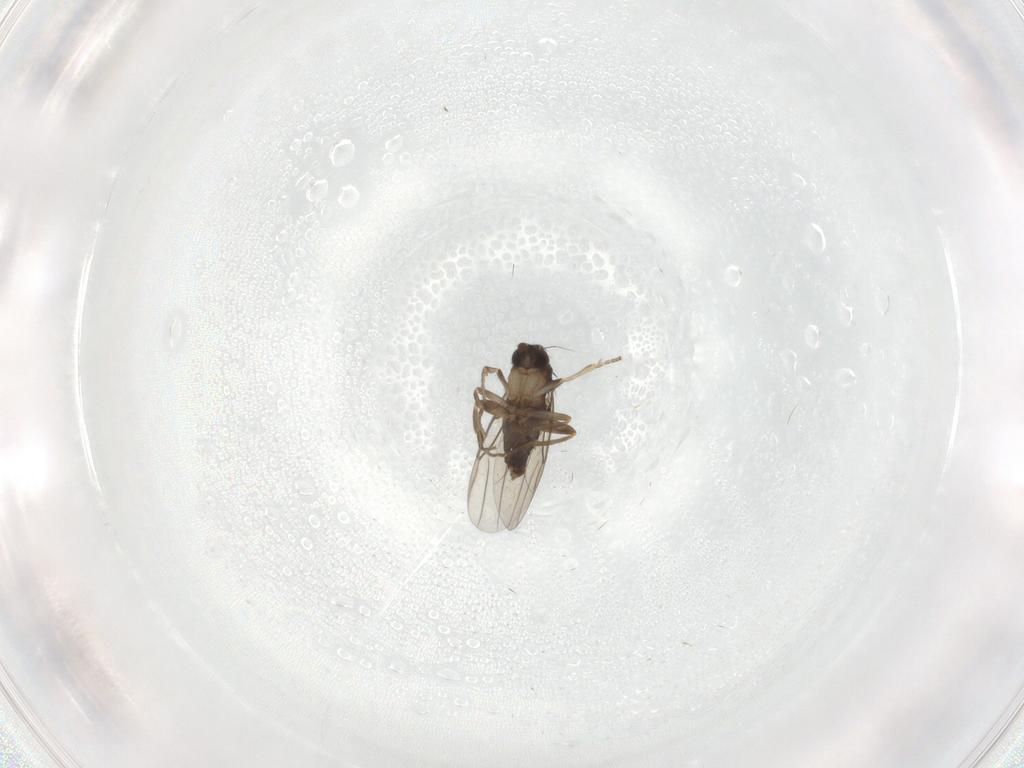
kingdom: Animalia
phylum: Arthropoda
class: Insecta
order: Diptera
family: Phoridae
